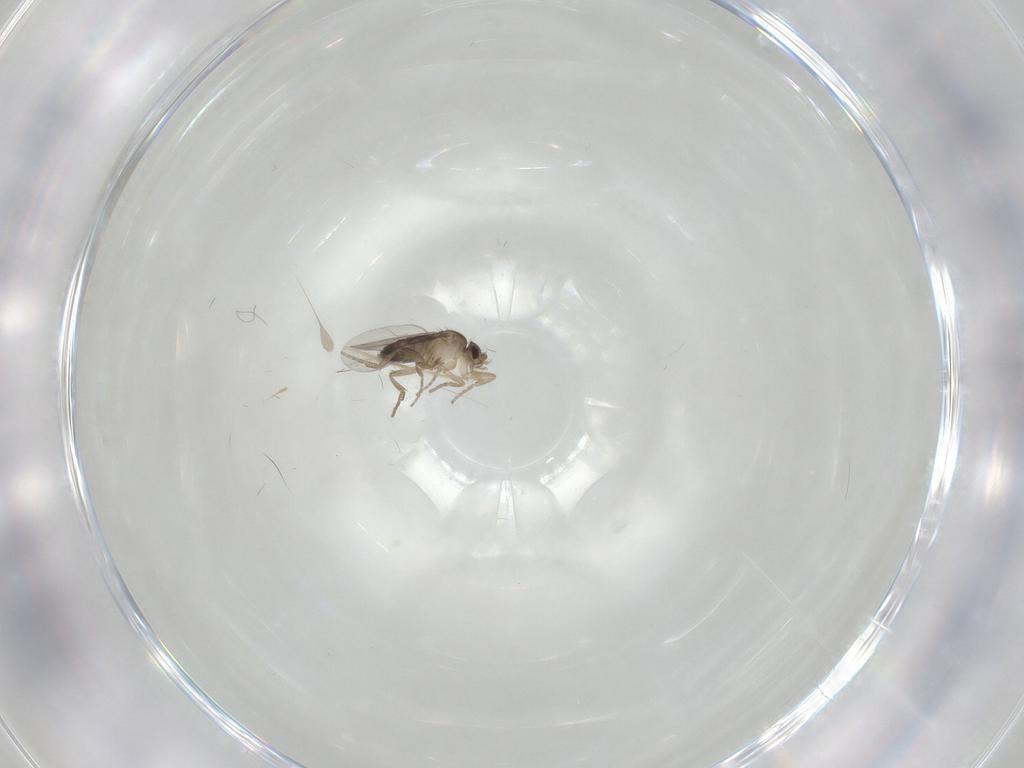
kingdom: Animalia
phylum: Arthropoda
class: Insecta
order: Diptera
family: Chironomidae
